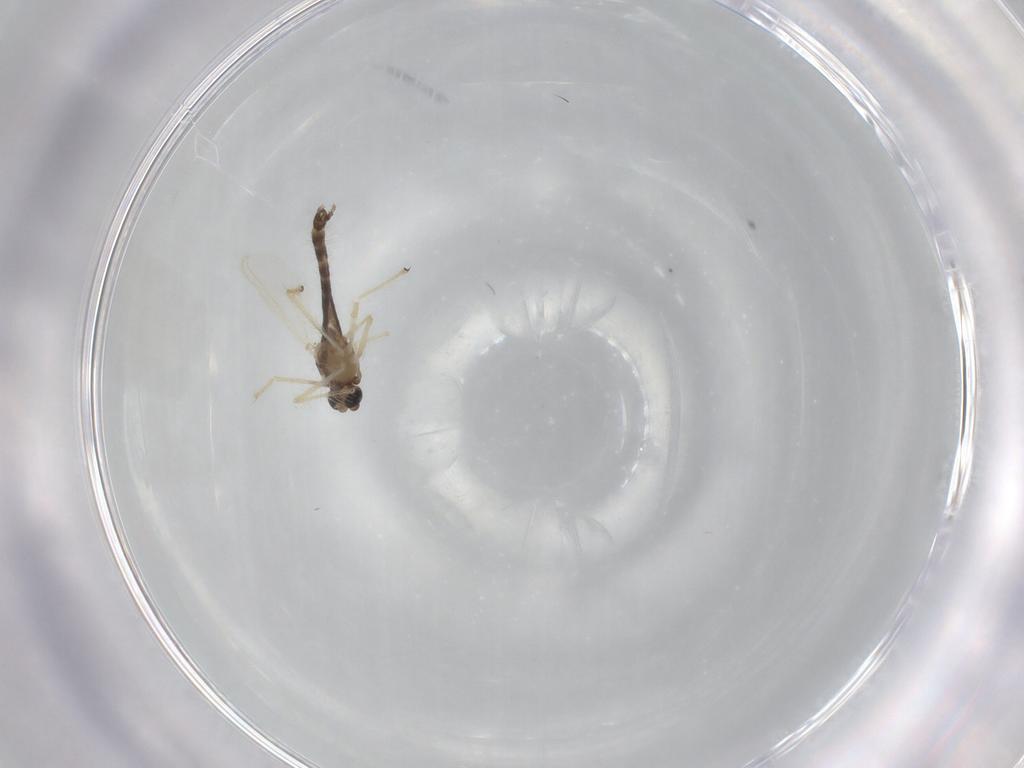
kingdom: Animalia
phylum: Arthropoda
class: Insecta
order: Diptera
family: Chironomidae
